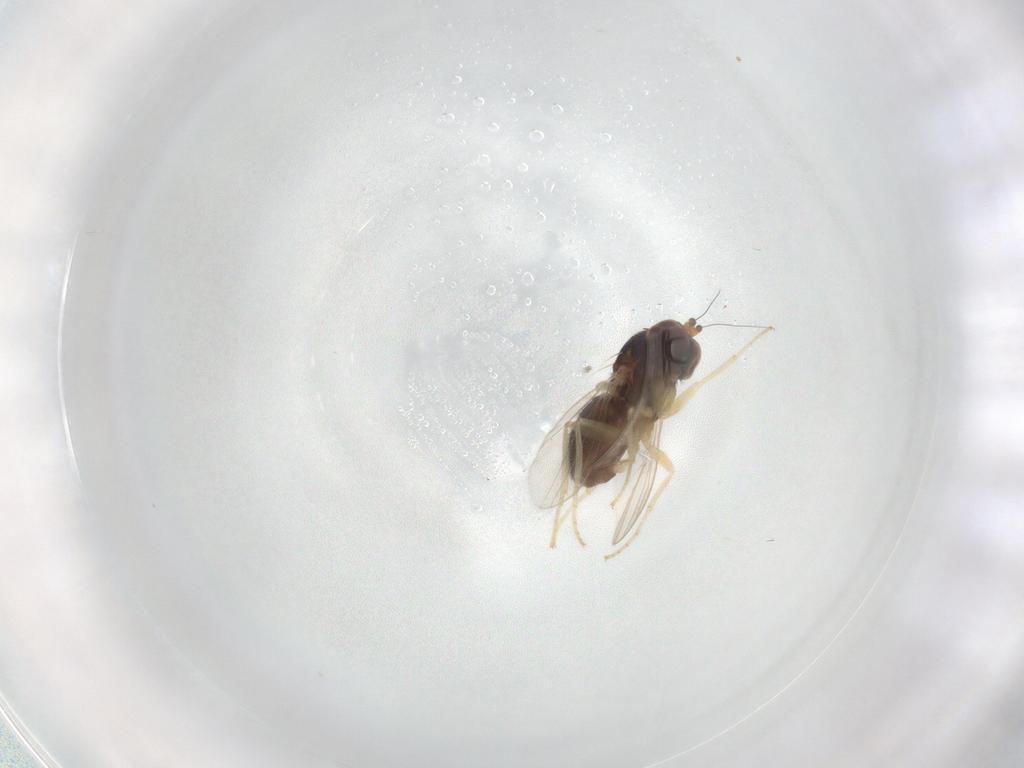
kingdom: Animalia
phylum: Arthropoda
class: Insecta
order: Diptera
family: Dolichopodidae
